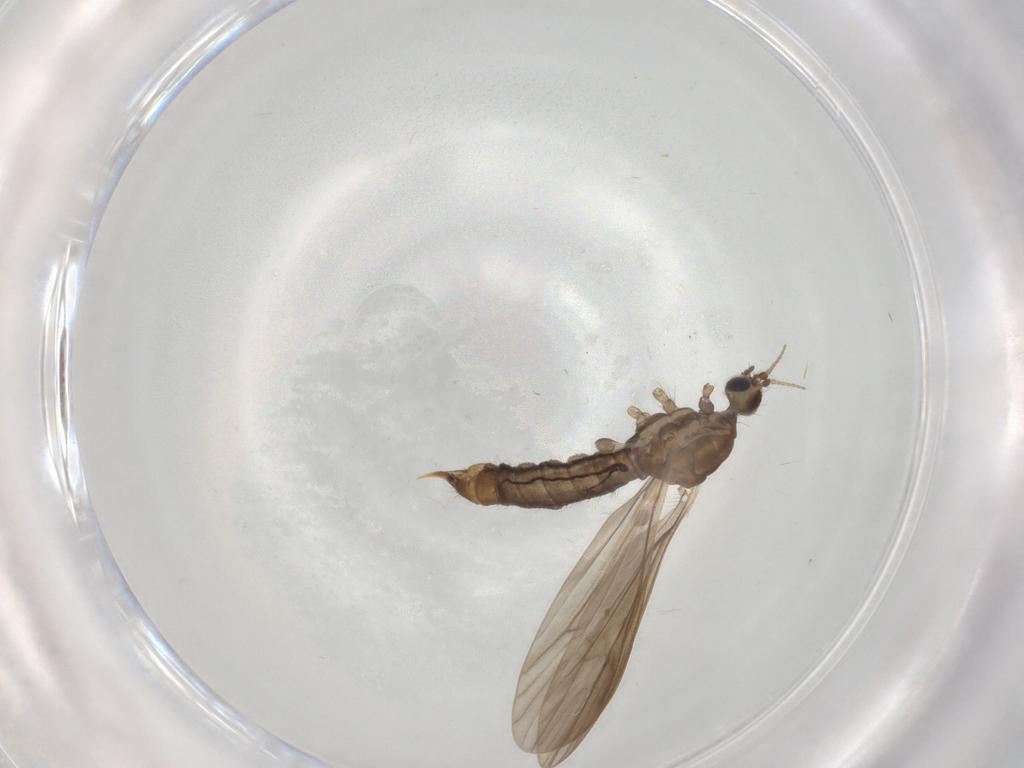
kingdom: Animalia
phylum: Arthropoda
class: Insecta
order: Diptera
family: Limoniidae
